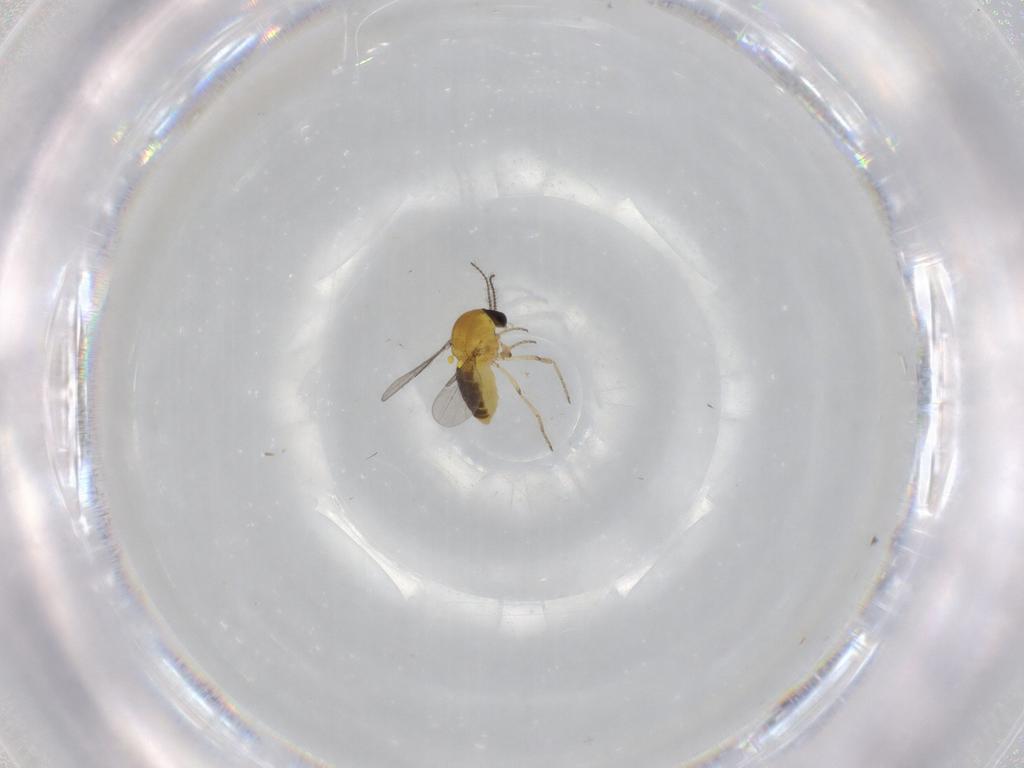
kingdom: Animalia
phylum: Arthropoda
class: Insecta
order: Diptera
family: Ceratopogonidae
